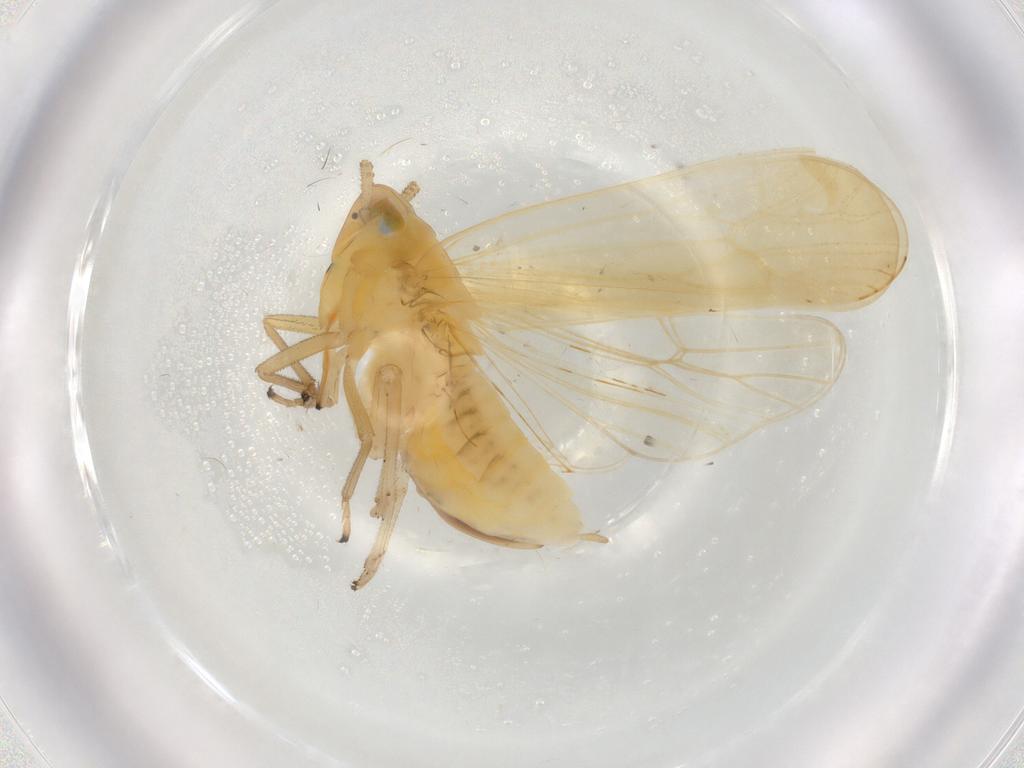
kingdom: Animalia
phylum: Arthropoda
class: Insecta
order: Hemiptera
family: Delphacidae
